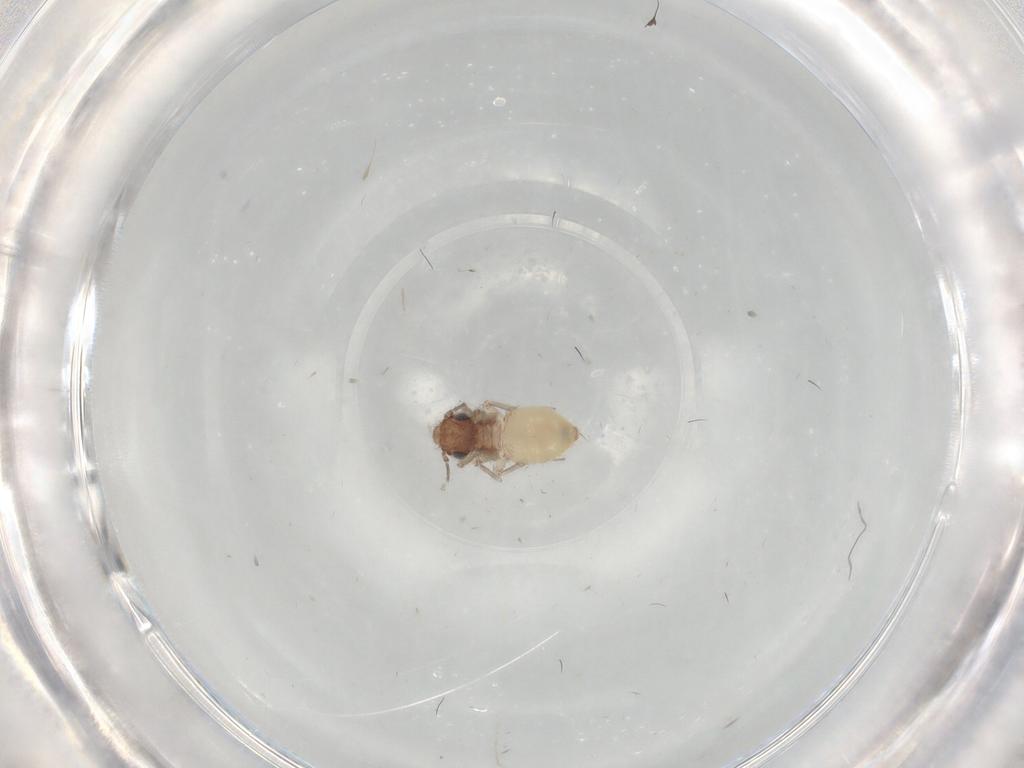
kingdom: Animalia
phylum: Arthropoda
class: Insecta
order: Psocodea
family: Lepidopsocidae
